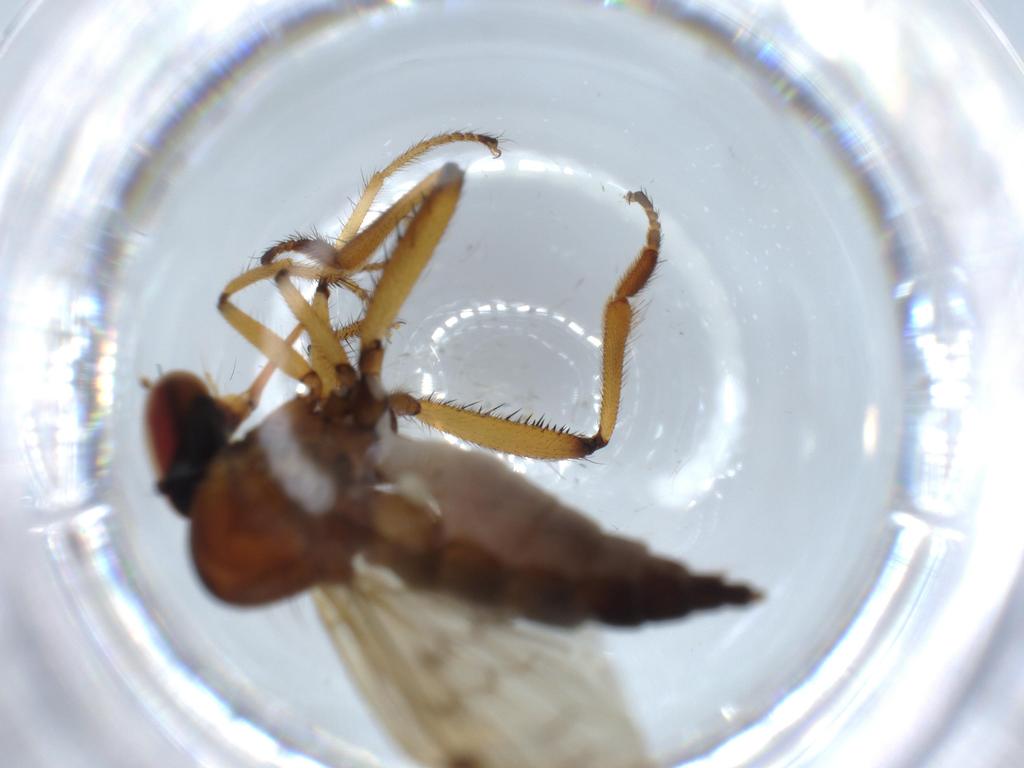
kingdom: Animalia
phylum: Arthropoda
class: Insecta
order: Diptera
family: Hybotidae
